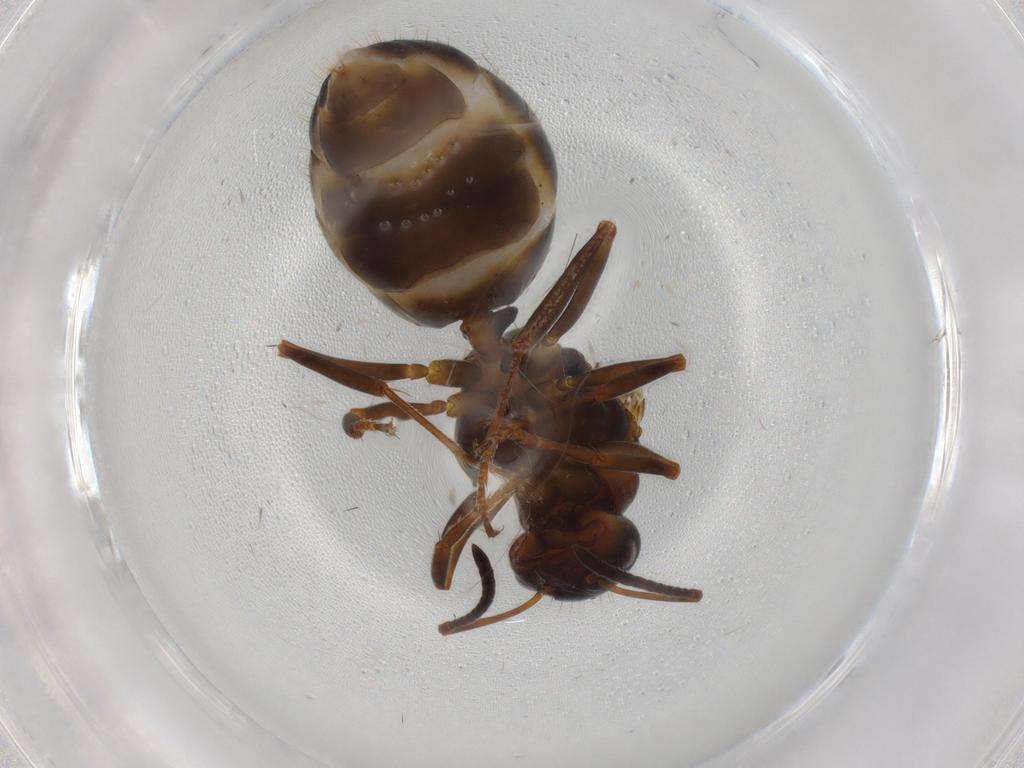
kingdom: Animalia
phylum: Arthropoda
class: Insecta
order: Hymenoptera
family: Formicidae
